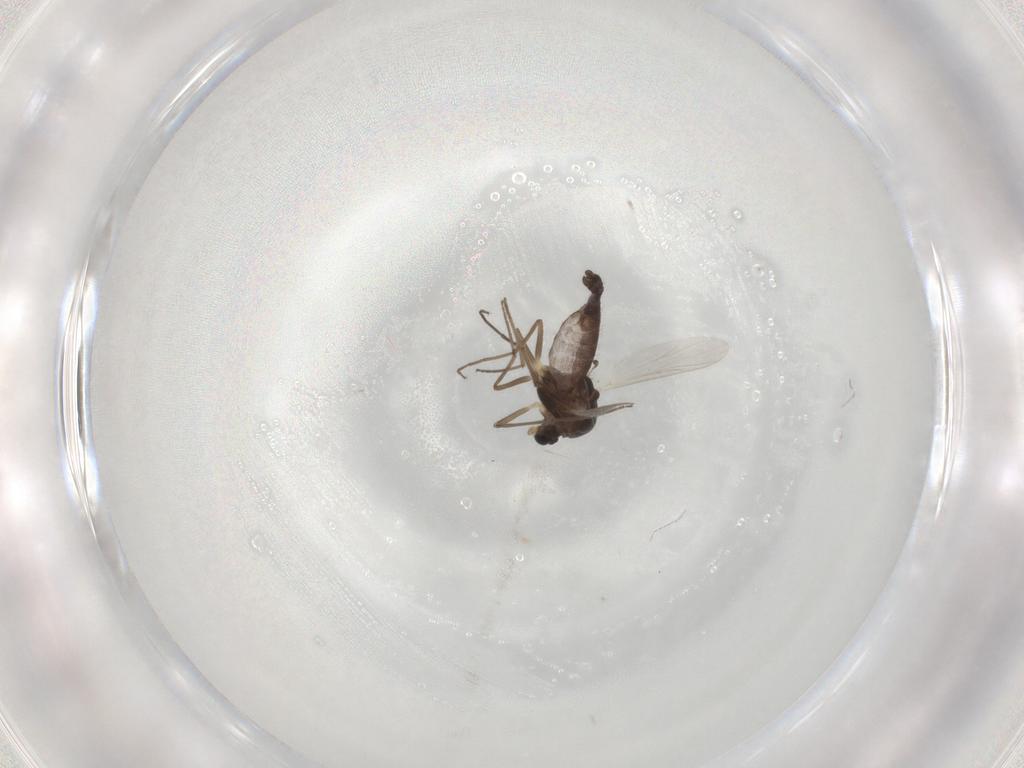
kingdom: Animalia
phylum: Arthropoda
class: Insecta
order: Diptera
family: Chironomidae
